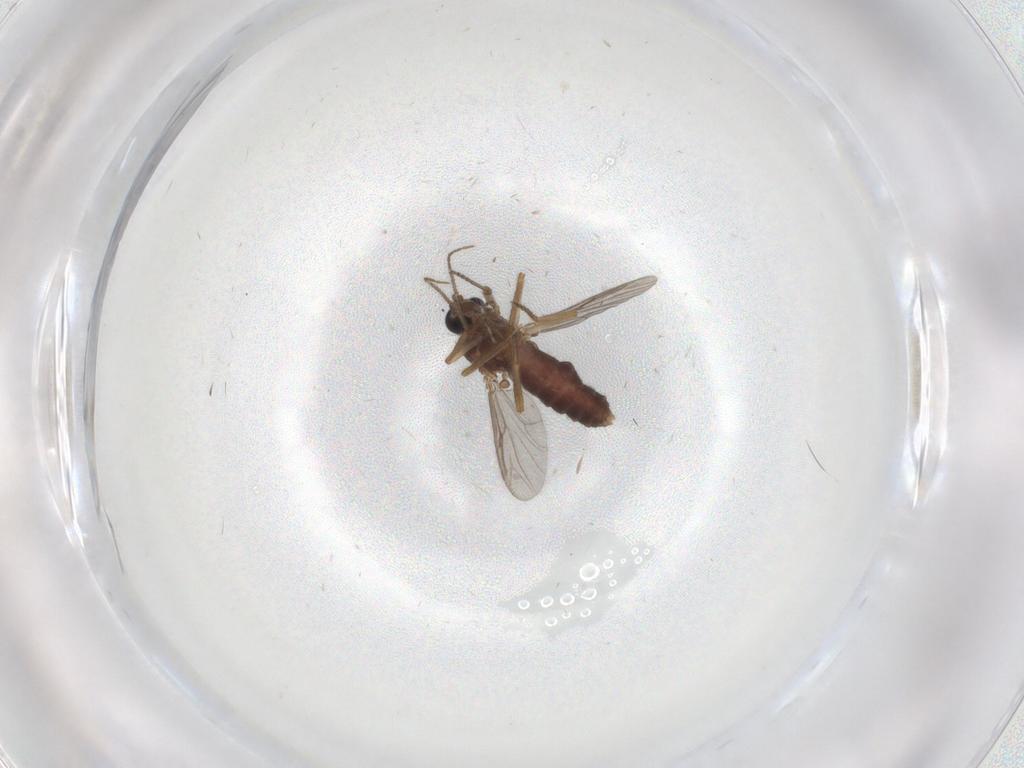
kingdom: Animalia
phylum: Arthropoda
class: Insecta
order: Diptera
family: Ceratopogonidae
